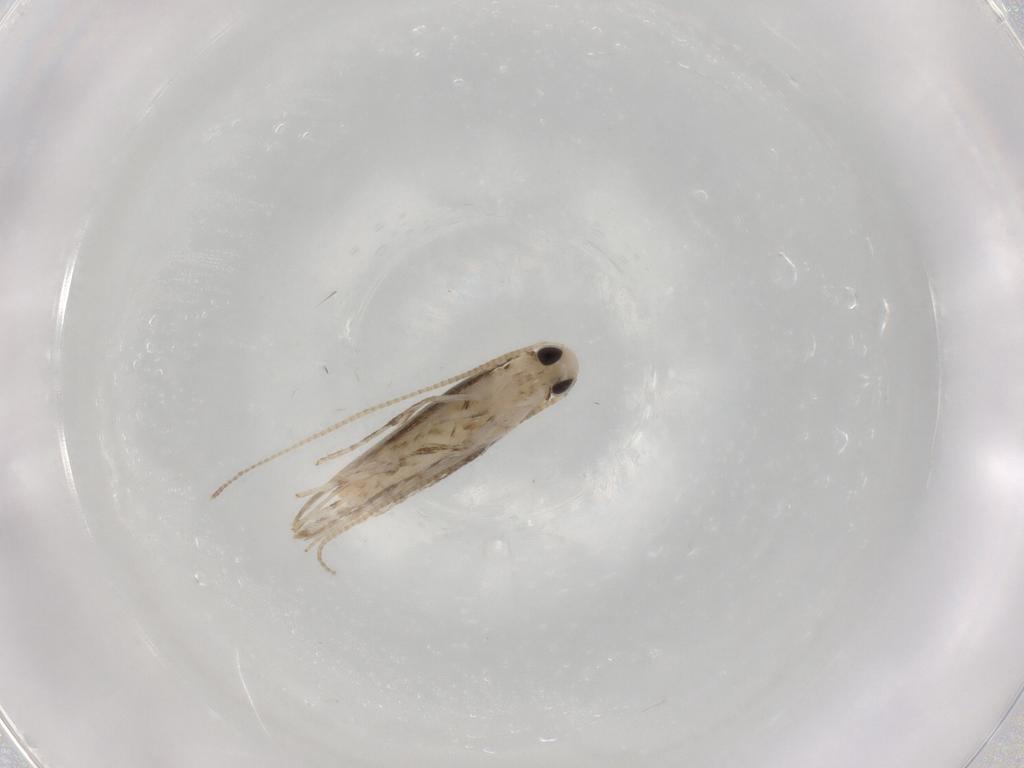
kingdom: Animalia
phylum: Arthropoda
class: Insecta
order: Lepidoptera
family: Gracillariidae
